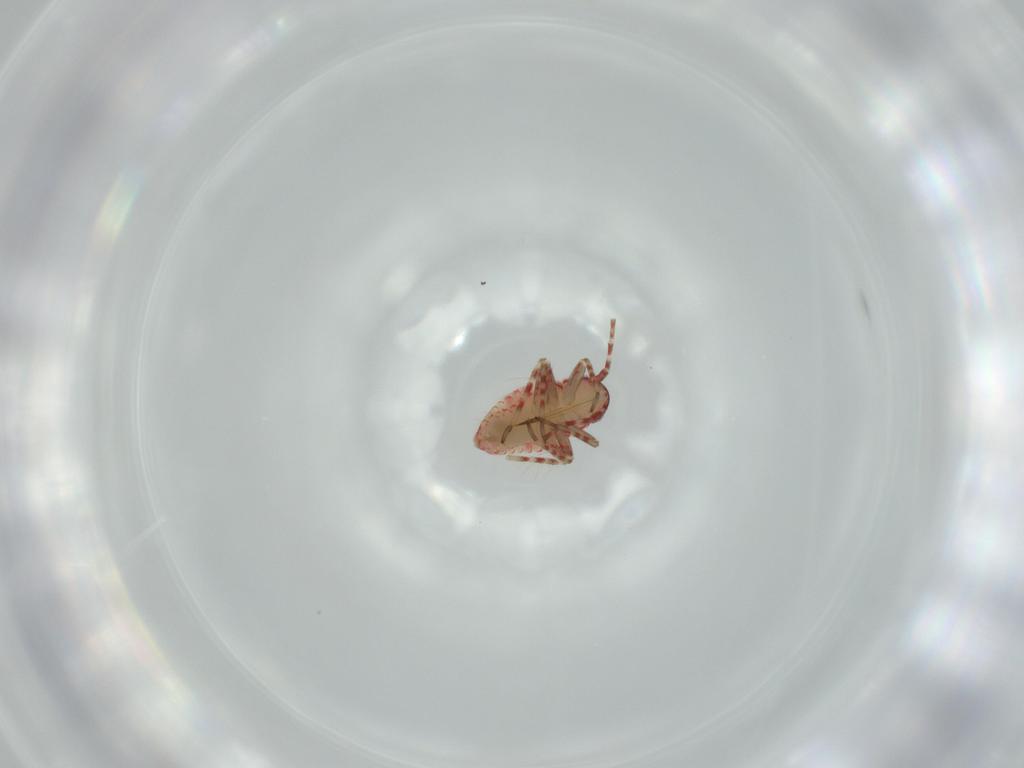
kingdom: Animalia
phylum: Arthropoda
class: Insecta
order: Hemiptera
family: Miridae
